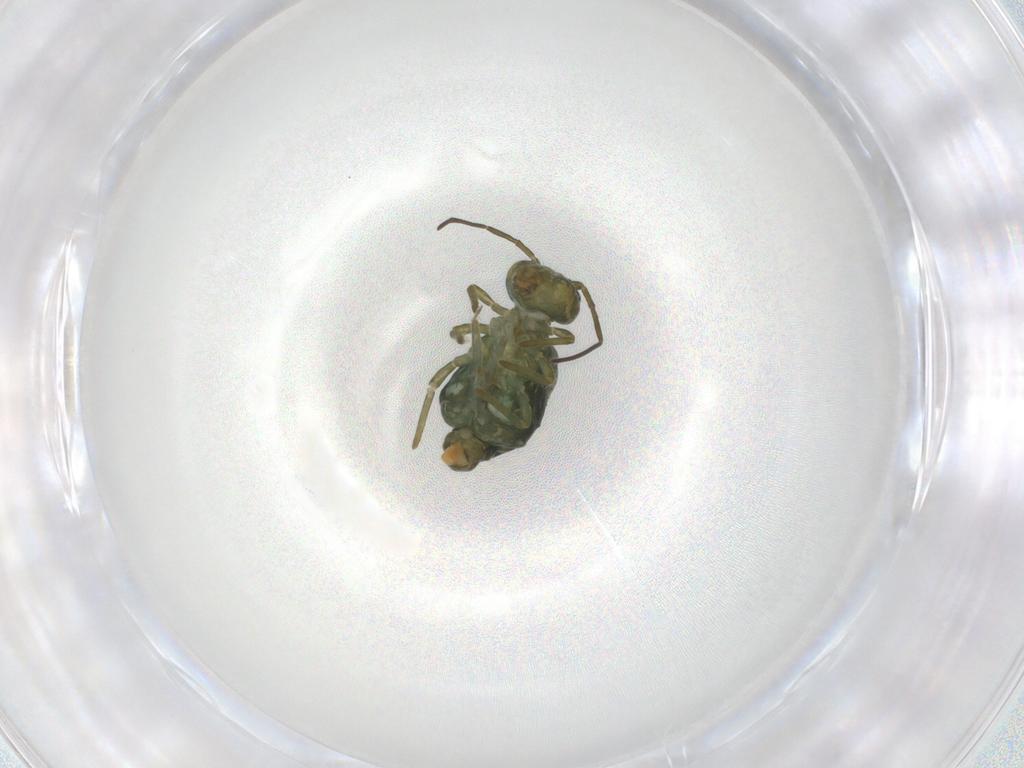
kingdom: Animalia
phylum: Arthropoda
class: Collembola
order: Symphypleona
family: Sminthuridae
